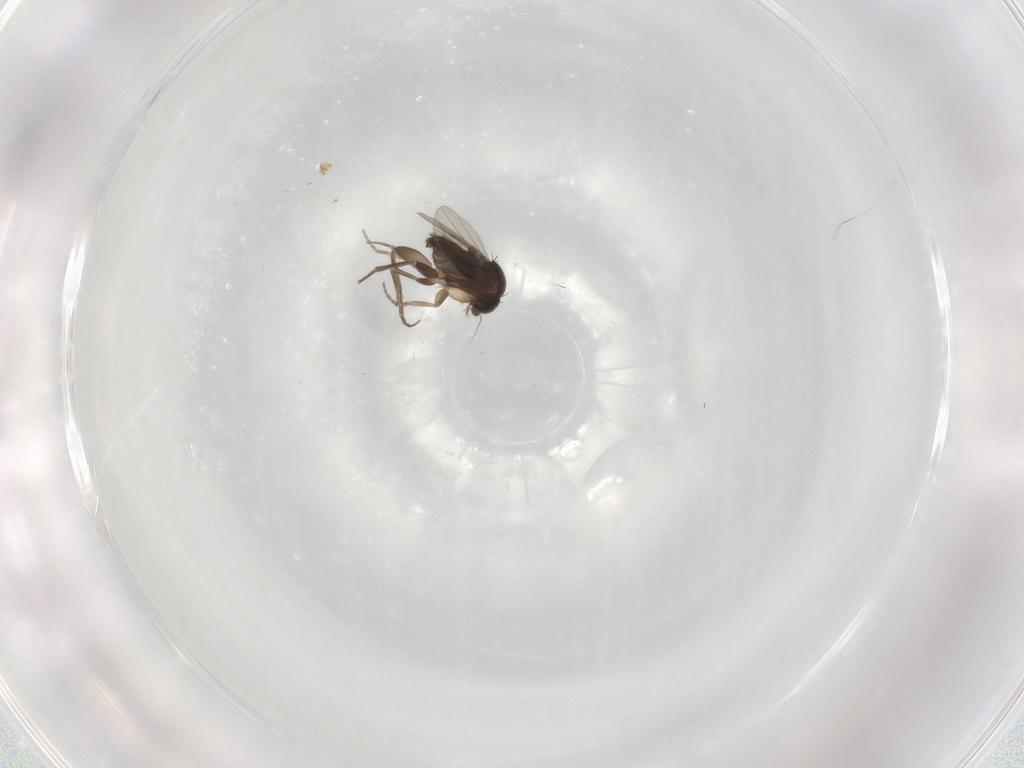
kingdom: Animalia
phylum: Arthropoda
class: Insecta
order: Diptera
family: Phoridae
